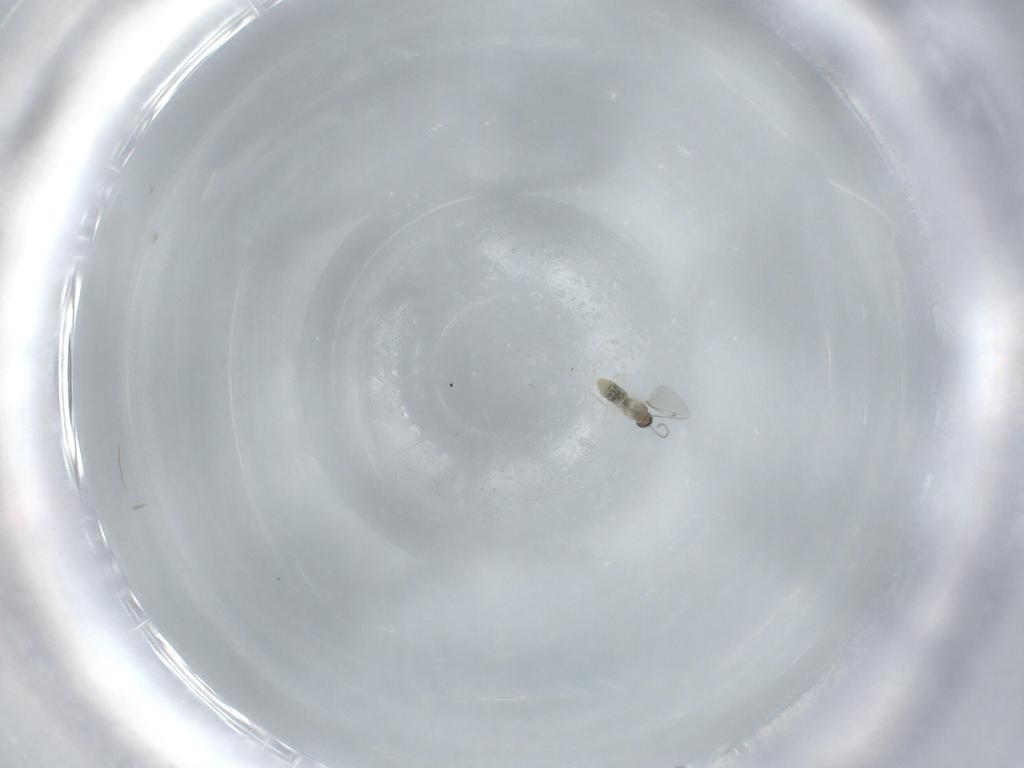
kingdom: Animalia
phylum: Arthropoda
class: Insecta
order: Diptera
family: Cecidomyiidae
